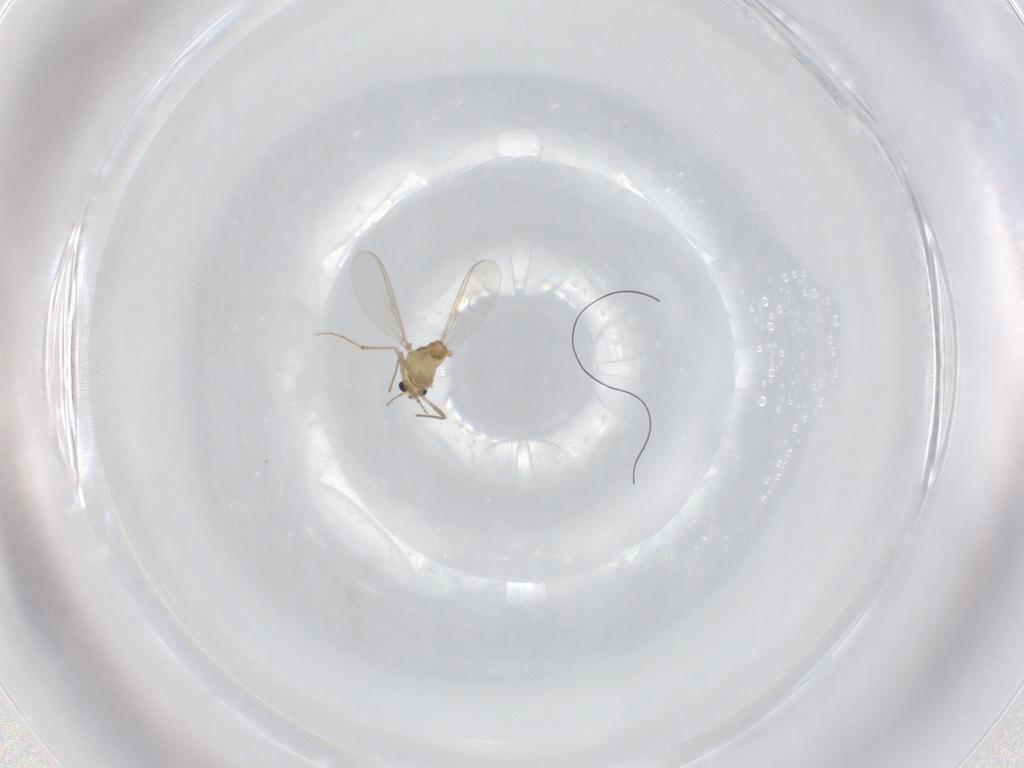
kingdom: Animalia
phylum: Arthropoda
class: Insecta
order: Diptera
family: Chironomidae
